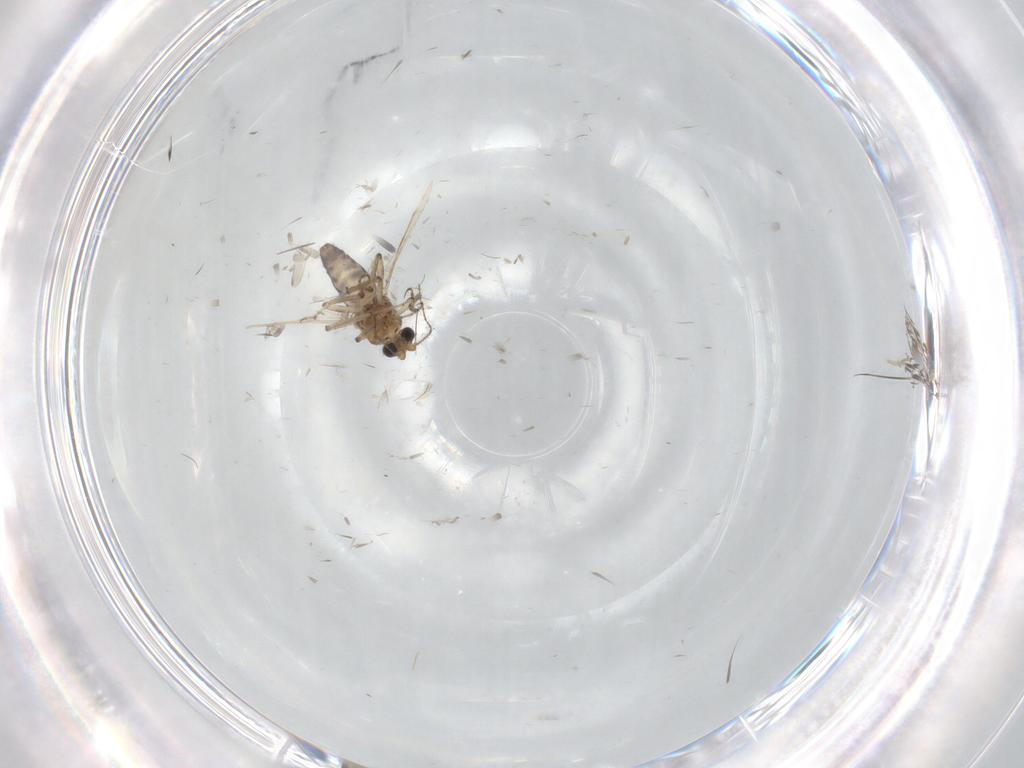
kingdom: Animalia
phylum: Arthropoda
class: Insecta
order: Diptera
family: Ceratopogonidae
